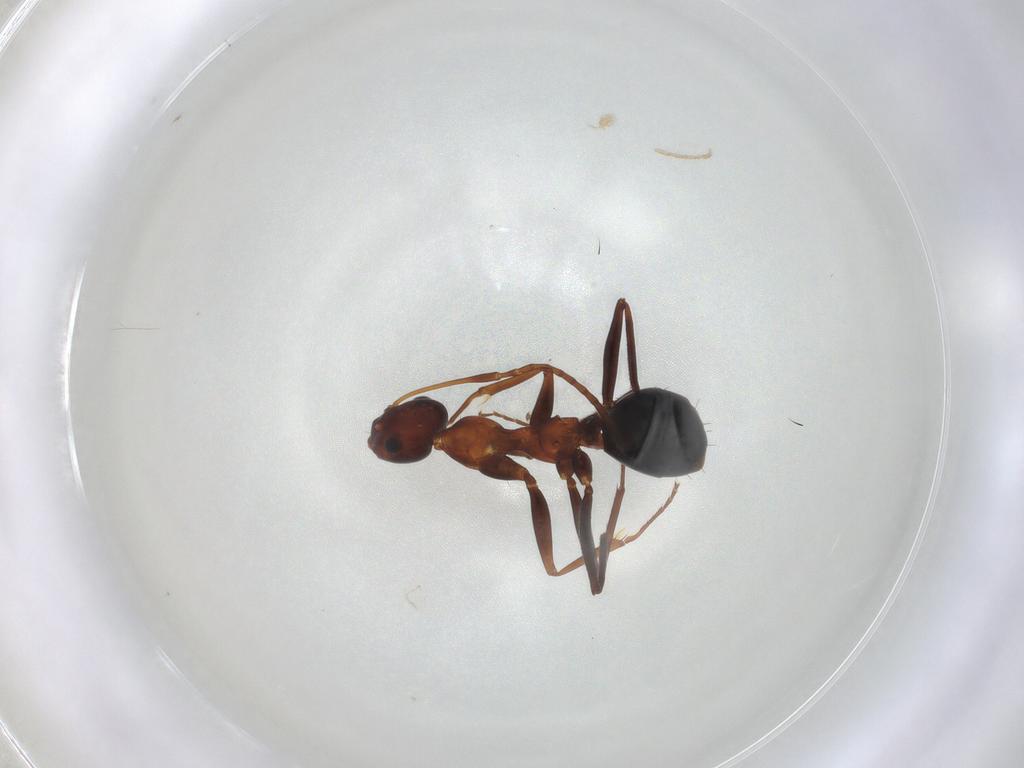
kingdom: Animalia
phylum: Arthropoda
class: Insecta
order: Hymenoptera
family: Formicidae
